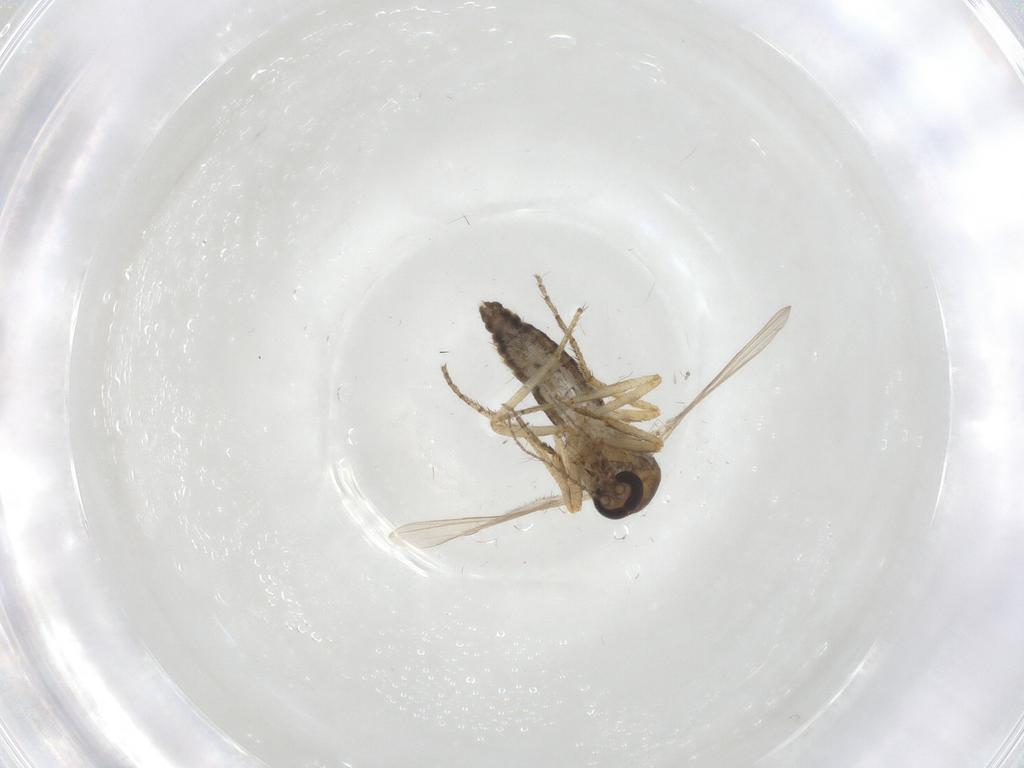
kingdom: Animalia
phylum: Arthropoda
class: Insecta
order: Diptera
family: Ceratopogonidae
